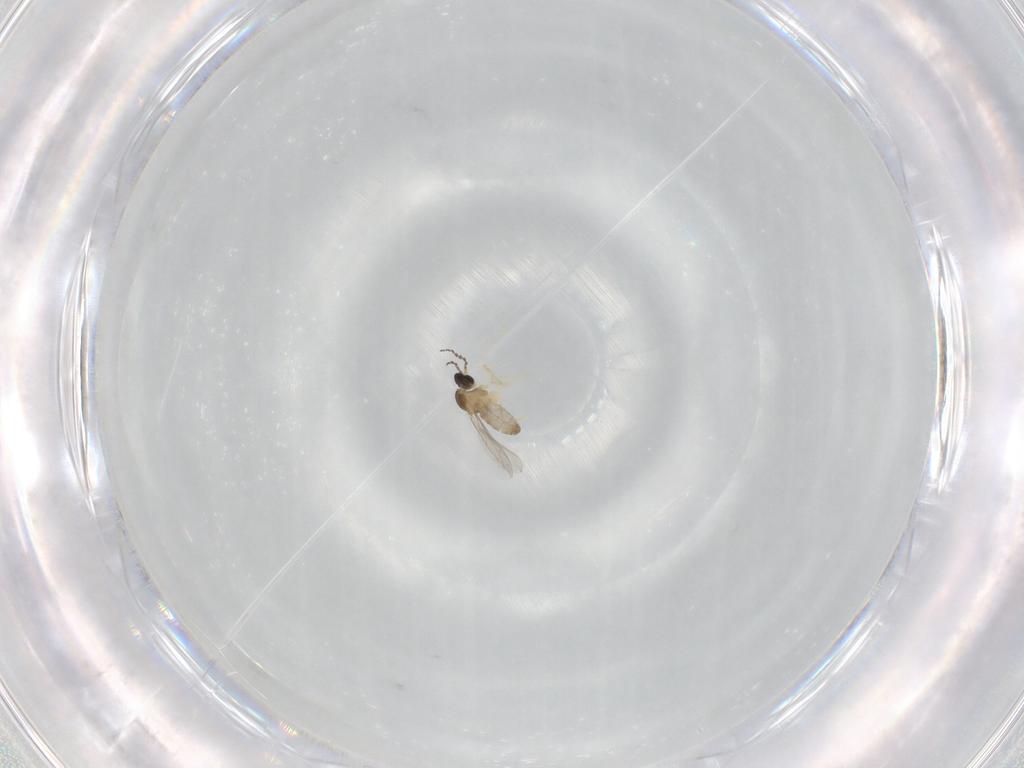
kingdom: Animalia
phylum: Arthropoda
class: Insecta
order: Diptera
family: Cecidomyiidae
